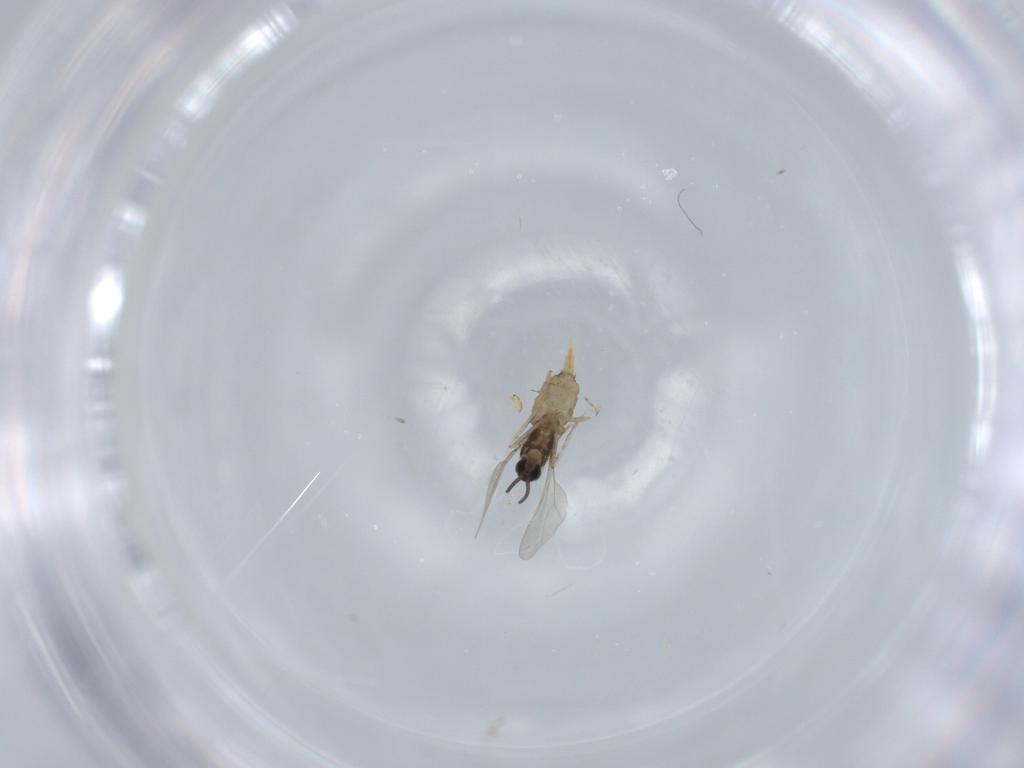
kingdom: Animalia
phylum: Arthropoda
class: Insecta
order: Diptera
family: Cecidomyiidae
